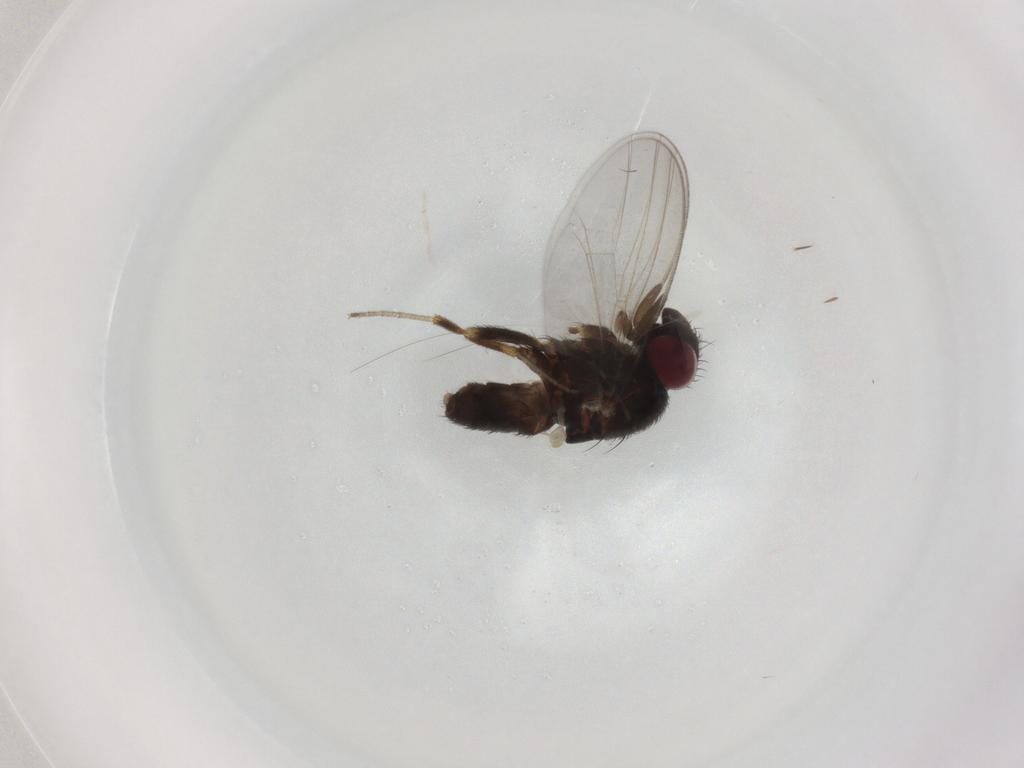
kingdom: Animalia
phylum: Arthropoda
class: Insecta
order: Diptera
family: Milichiidae
